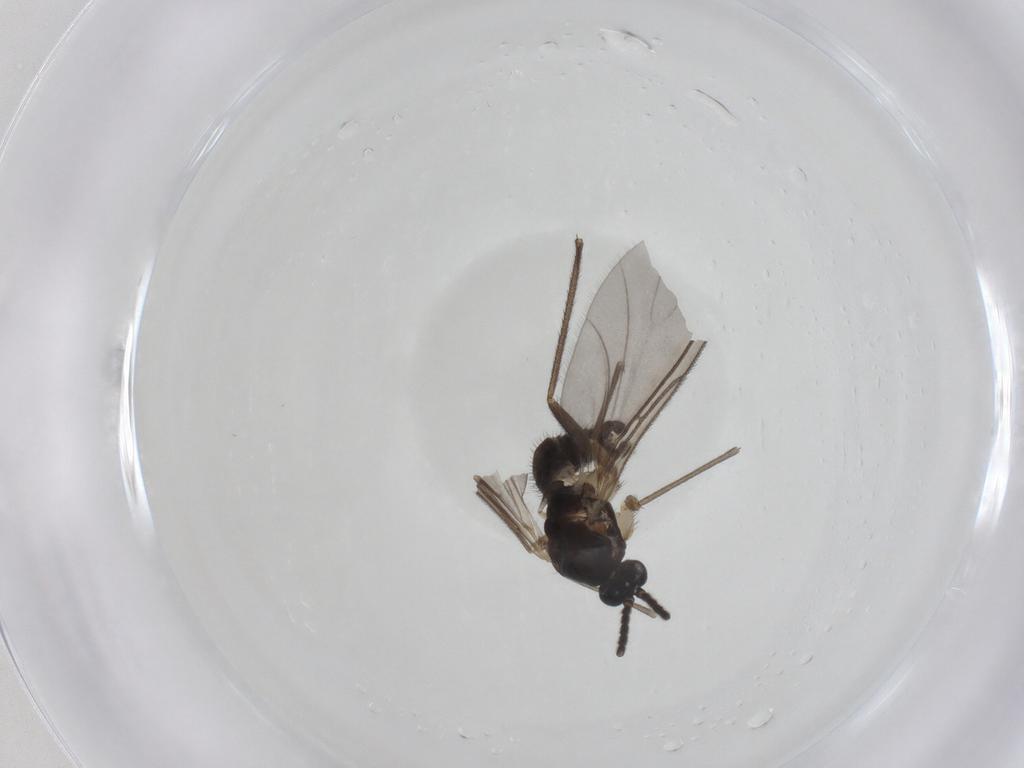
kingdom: Animalia
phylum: Arthropoda
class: Insecta
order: Diptera
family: Sciaridae
